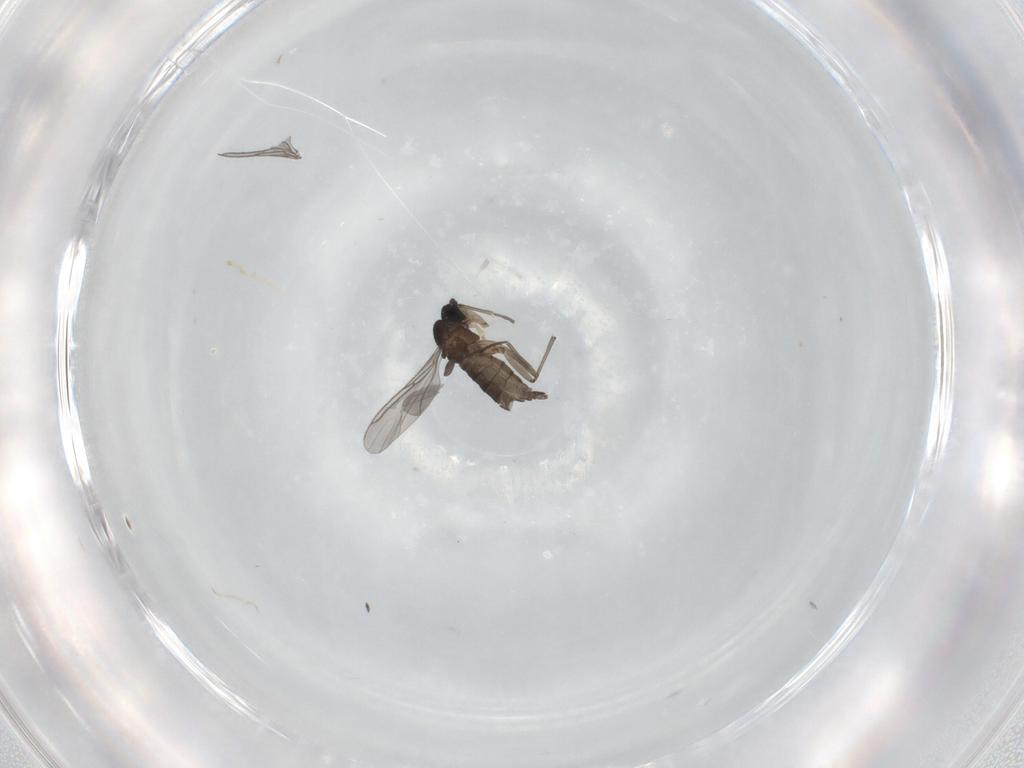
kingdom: Animalia
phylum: Arthropoda
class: Insecta
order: Diptera
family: Sciaridae
